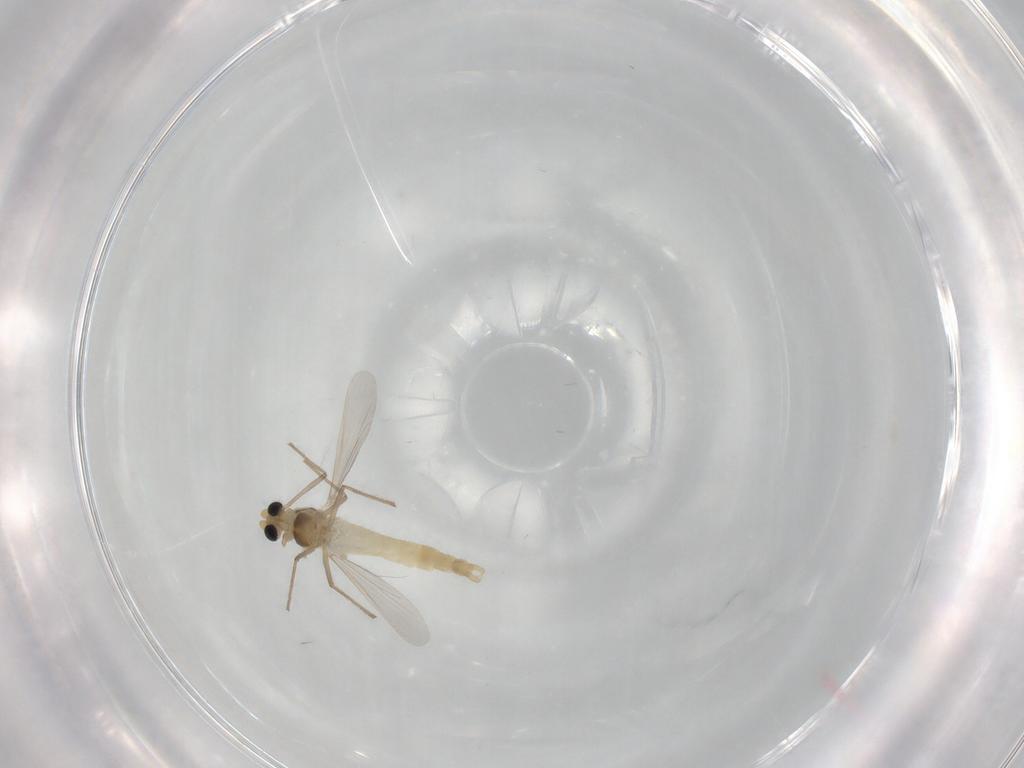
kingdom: Animalia
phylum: Arthropoda
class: Insecta
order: Diptera
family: Chironomidae
